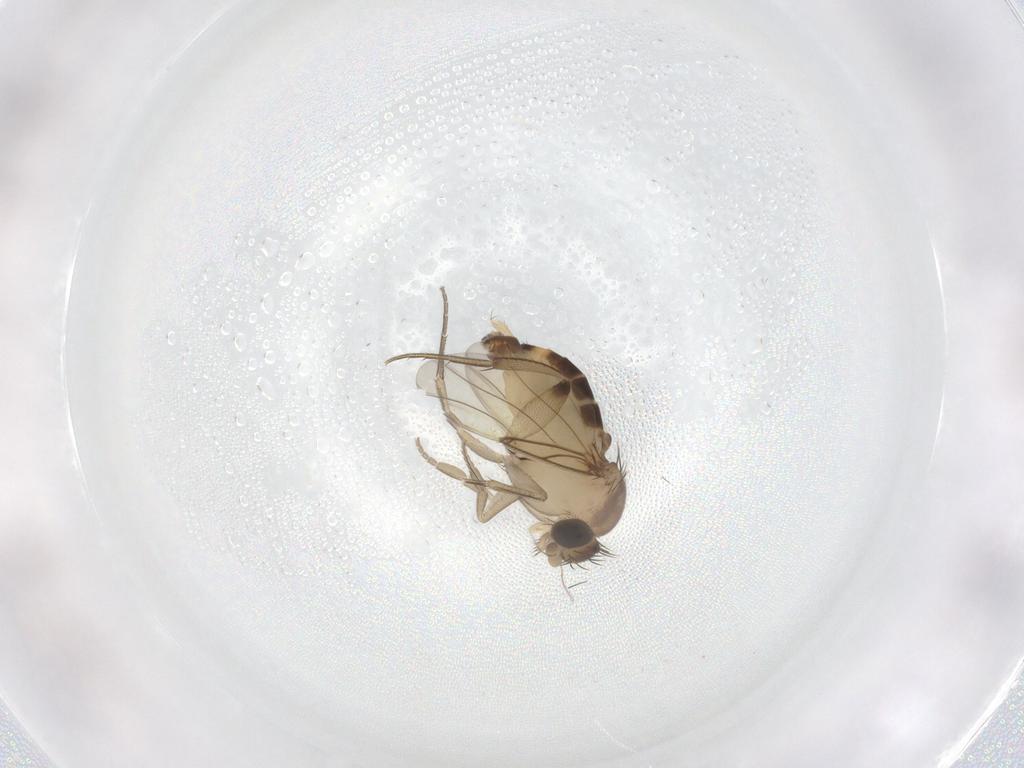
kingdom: Animalia
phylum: Arthropoda
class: Insecta
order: Diptera
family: Phoridae
